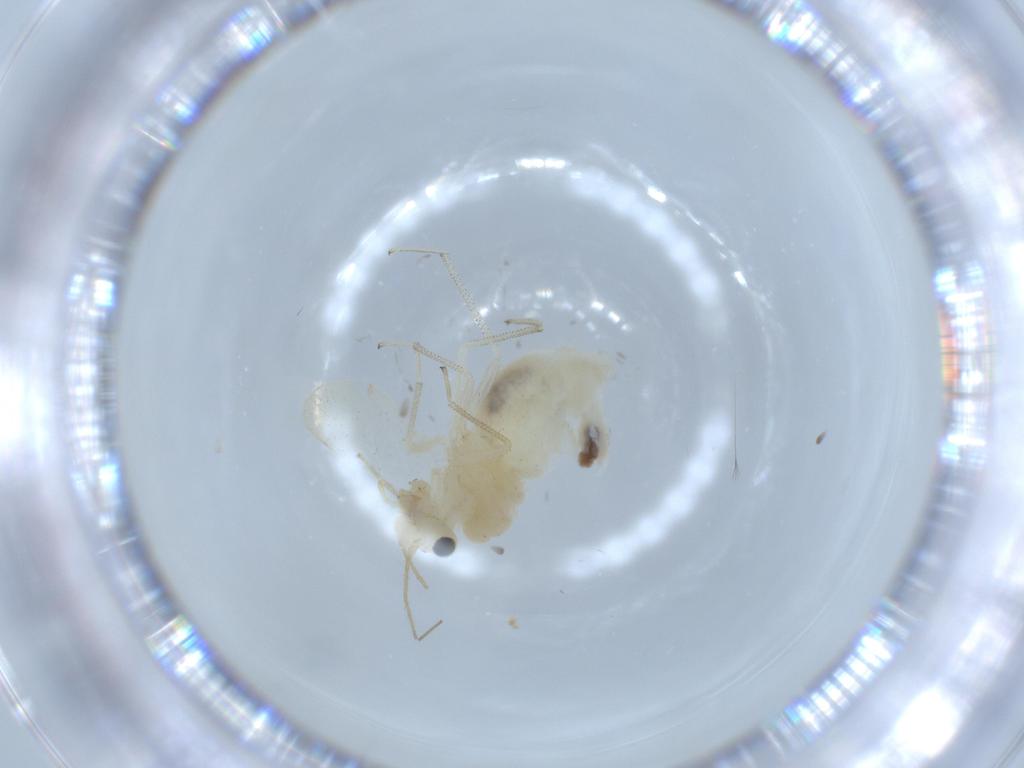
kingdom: Animalia
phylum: Arthropoda
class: Insecta
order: Psocodea
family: Caeciliusidae
